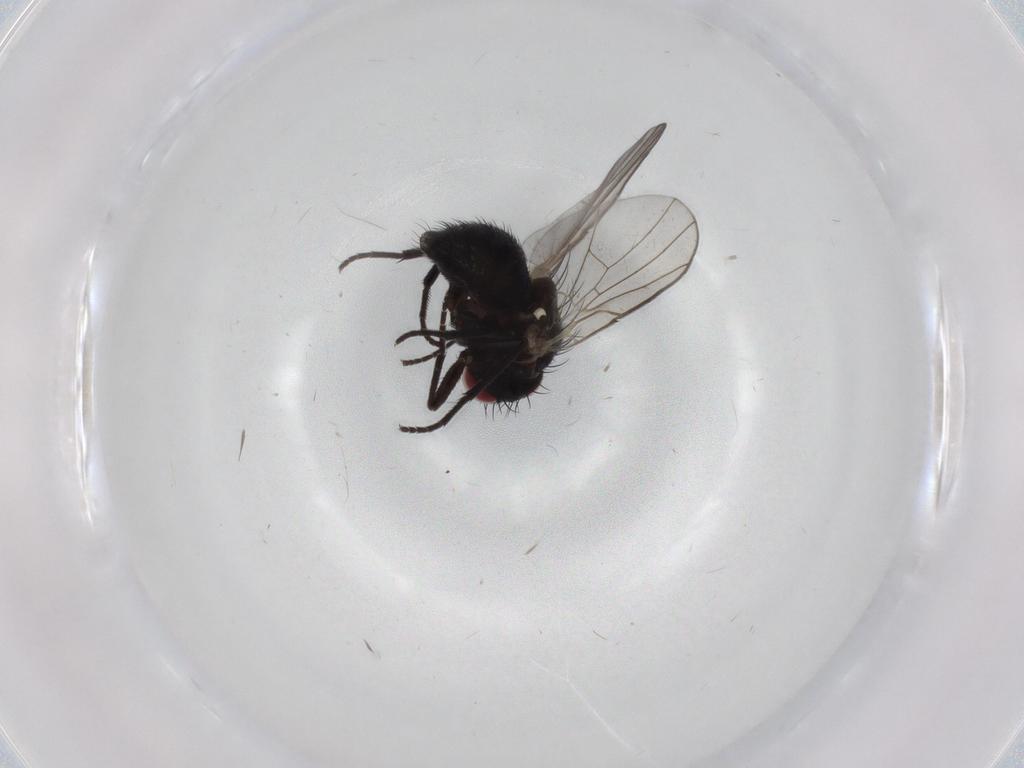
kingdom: Animalia
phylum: Arthropoda
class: Insecta
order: Diptera
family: Agromyzidae
